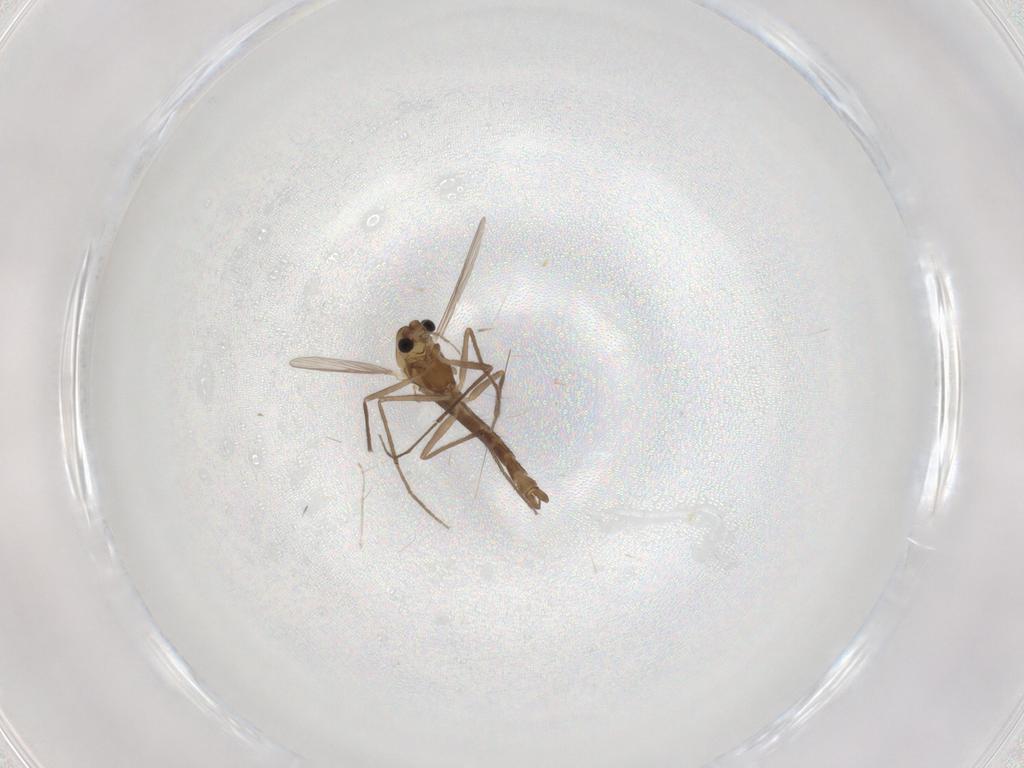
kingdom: Animalia
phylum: Arthropoda
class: Insecta
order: Diptera
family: Chironomidae
